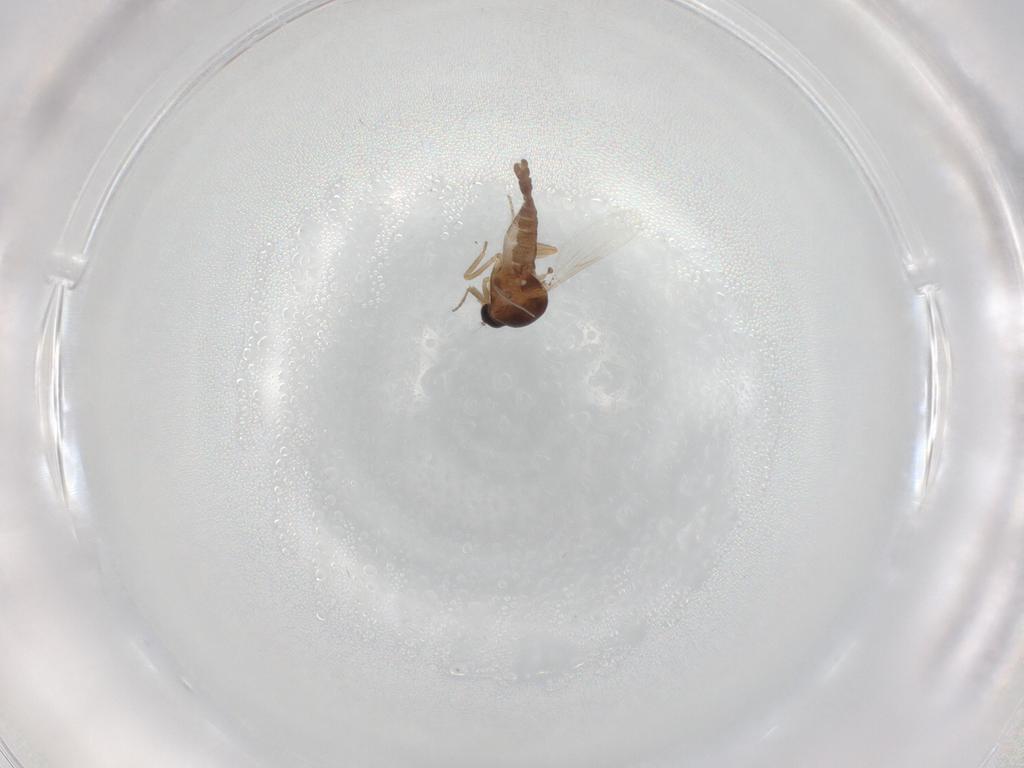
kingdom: Animalia
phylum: Arthropoda
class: Insecta
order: Diptera
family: Ceratopogonidae
